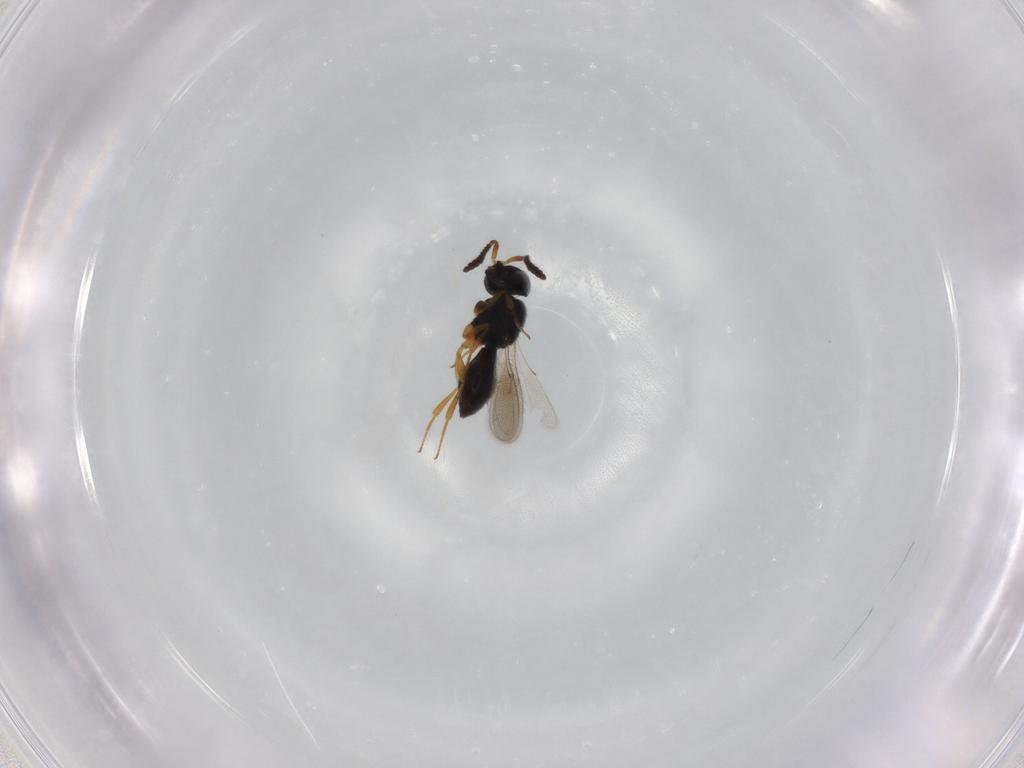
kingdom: Animalia
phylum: Arthropoda
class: Insecta
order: Hymenoptera
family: Scelionidae
